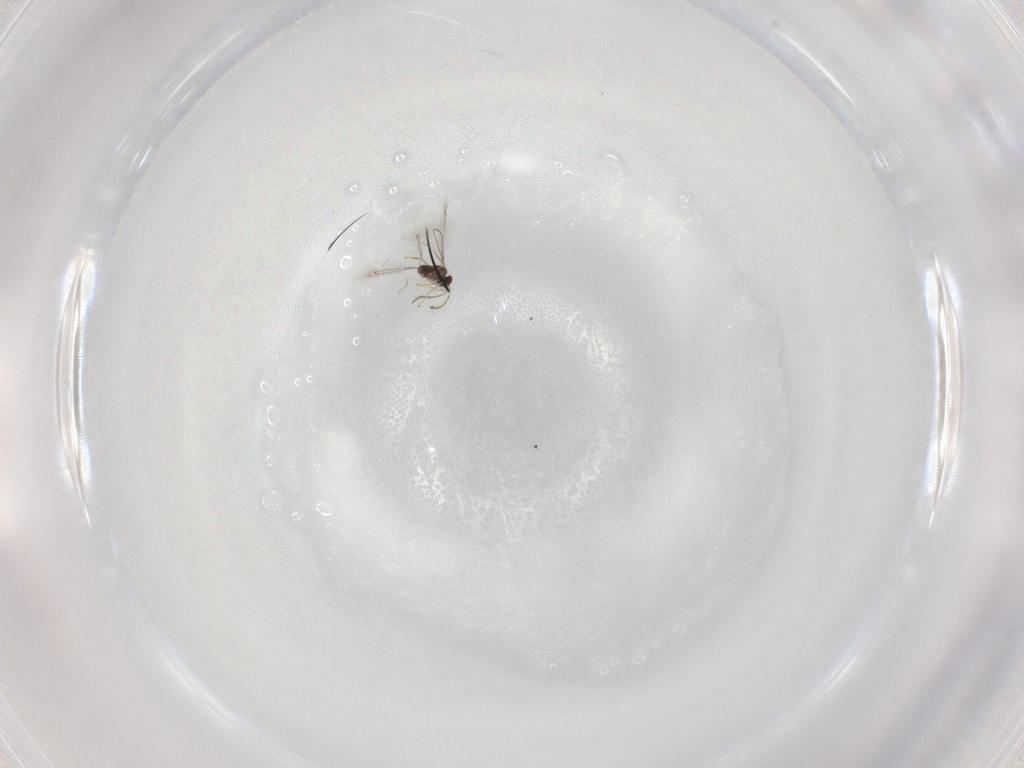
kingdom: Animalia
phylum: Arthropoda
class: Insecta
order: Hymenoptera
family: Mymaridae
